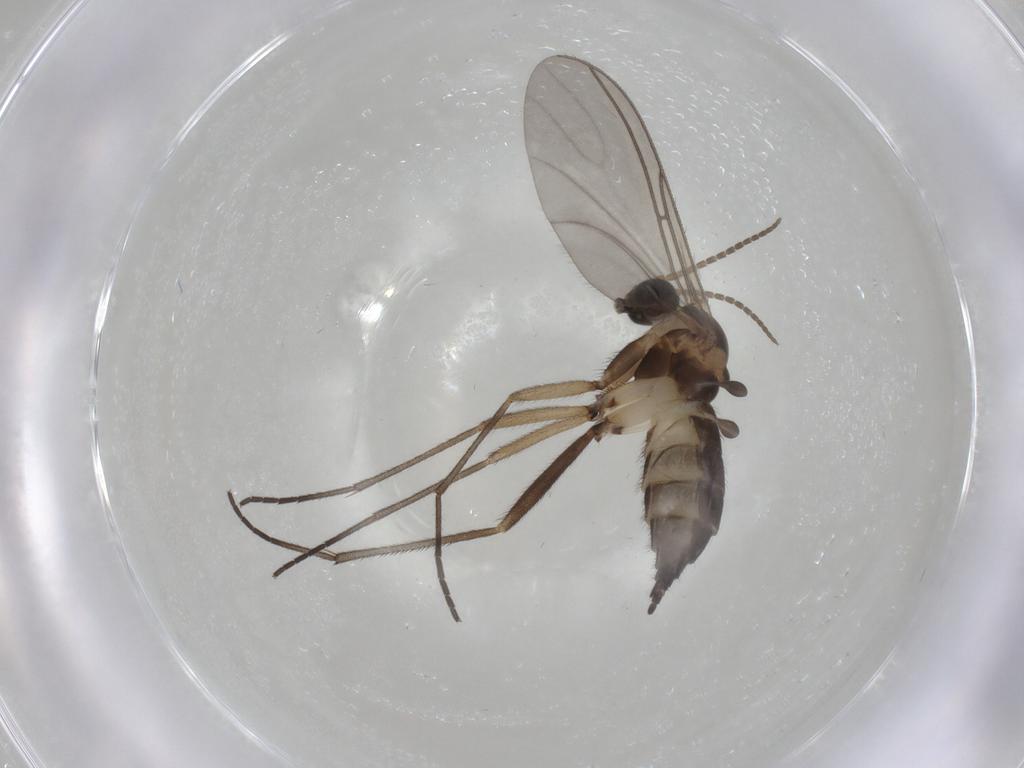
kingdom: Animalia
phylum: Arthropoda
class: Insecta
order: Diptera
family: Sciaridae
